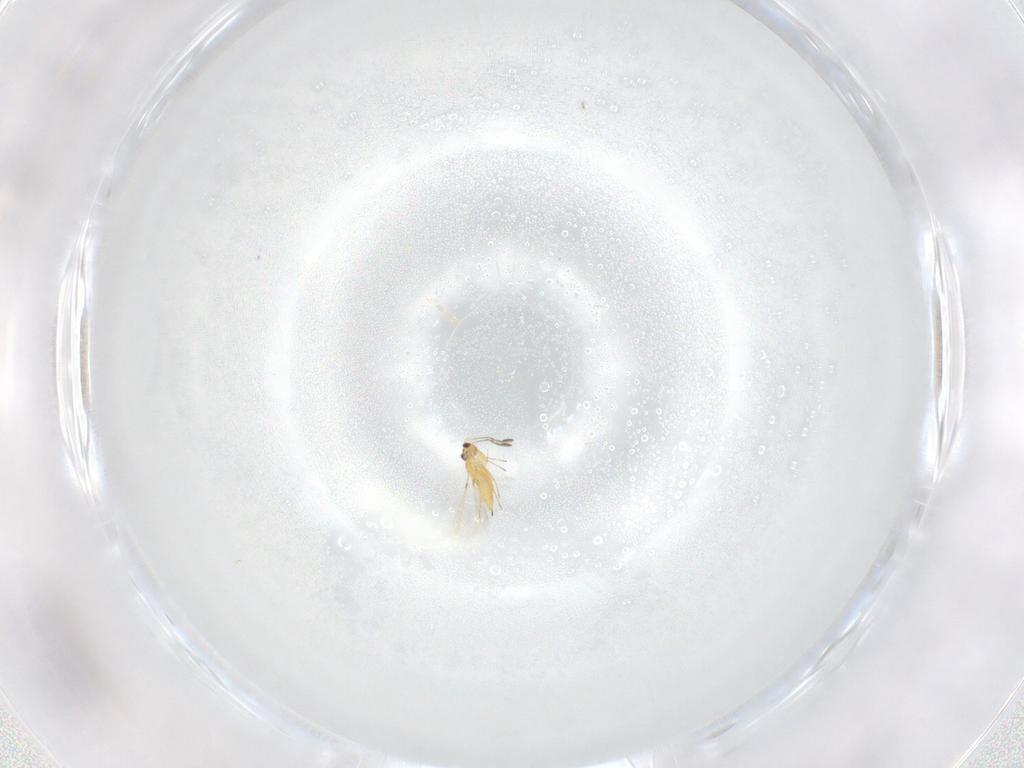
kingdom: Animalia
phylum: Arthropoda
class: Insecta
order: Hymenoptera
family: Mymaridae
